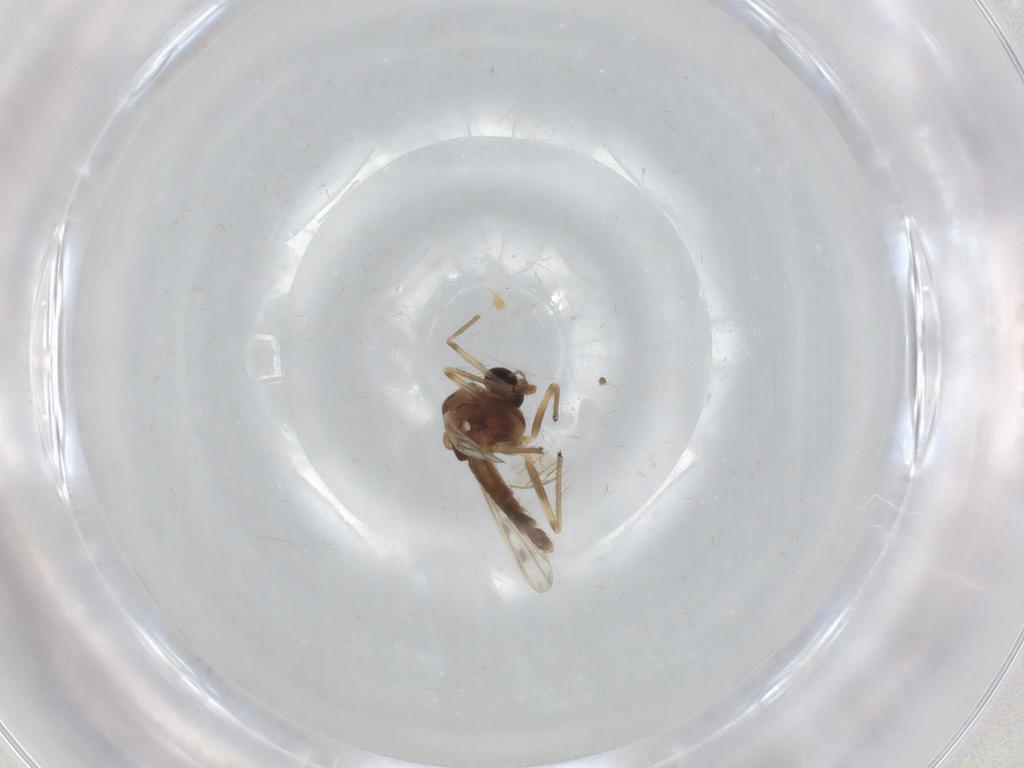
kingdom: Animalia
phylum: Arthropoda
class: Insecta
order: Diptera
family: Chironomidae
